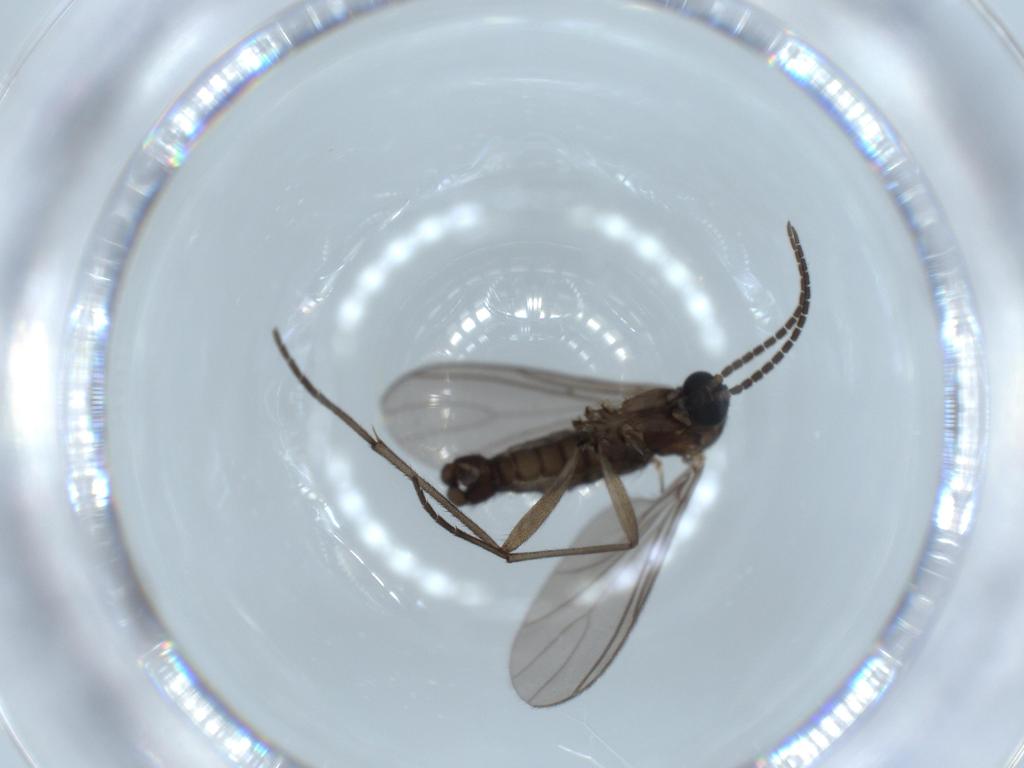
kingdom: Animalia
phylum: Arthropoda
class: Insecta
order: Diptera
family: Sciaridae
